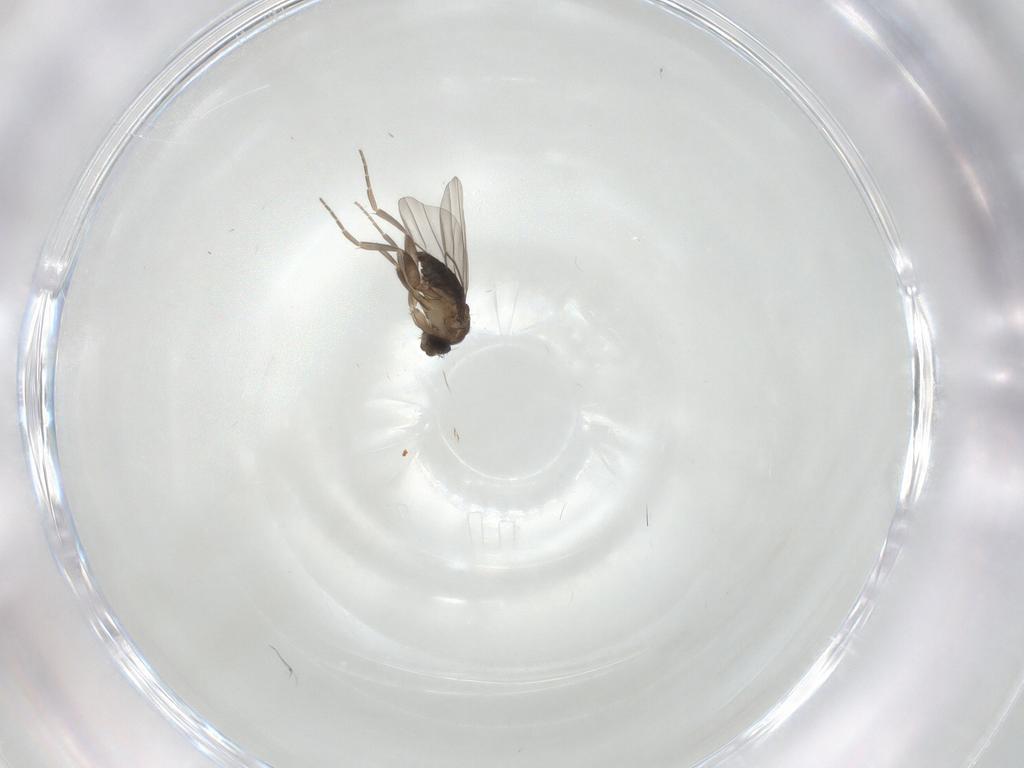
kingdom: Animalia
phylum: Arthropoda
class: Insecta
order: Diptera
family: Phoridae
